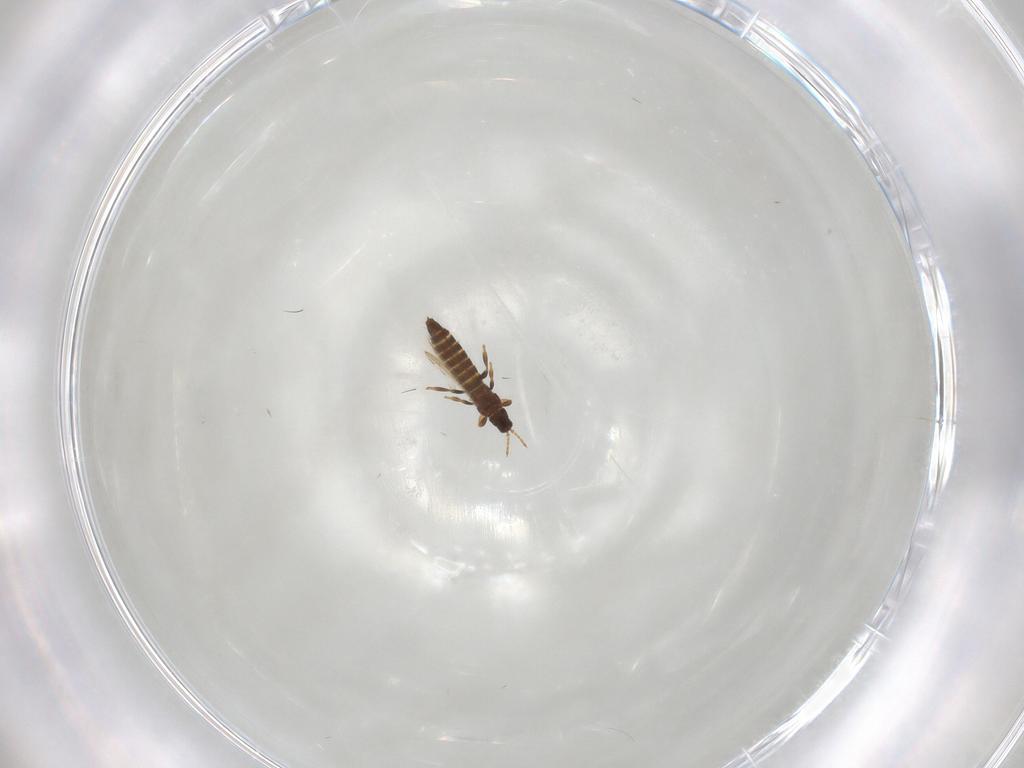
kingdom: Animalia
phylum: Arthropoda
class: Insecta
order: Thysanoptera
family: Thripidae
